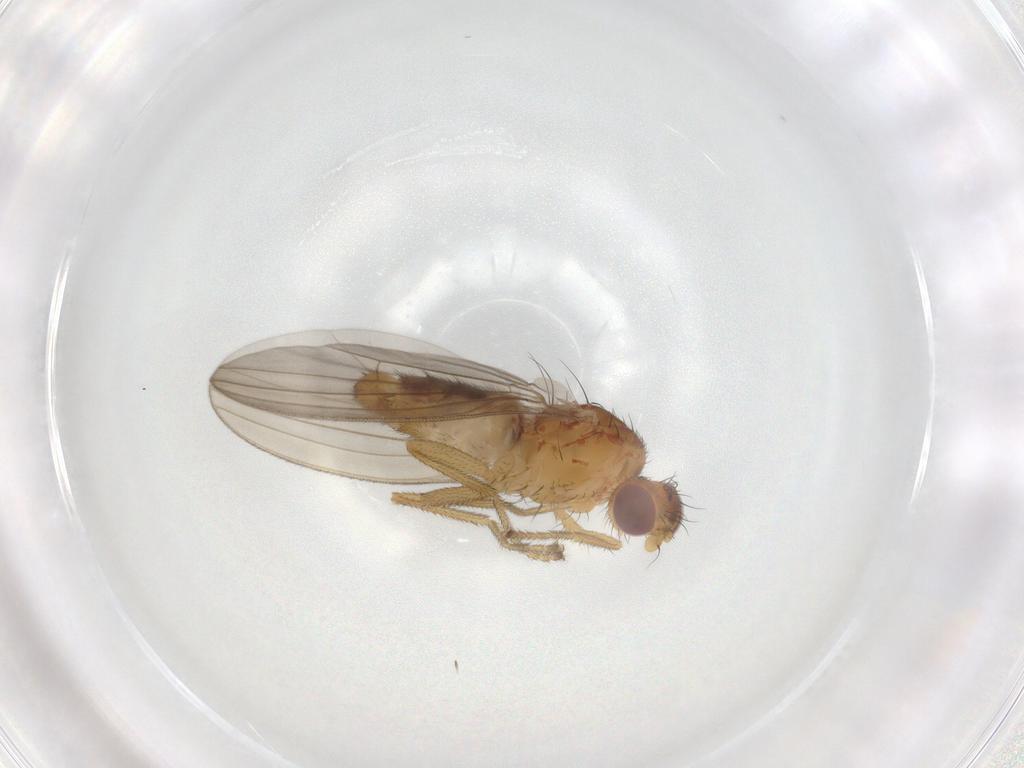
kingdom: Animalia
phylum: Arthropoda
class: Insecta
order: Diptera
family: Natalimyzidae
